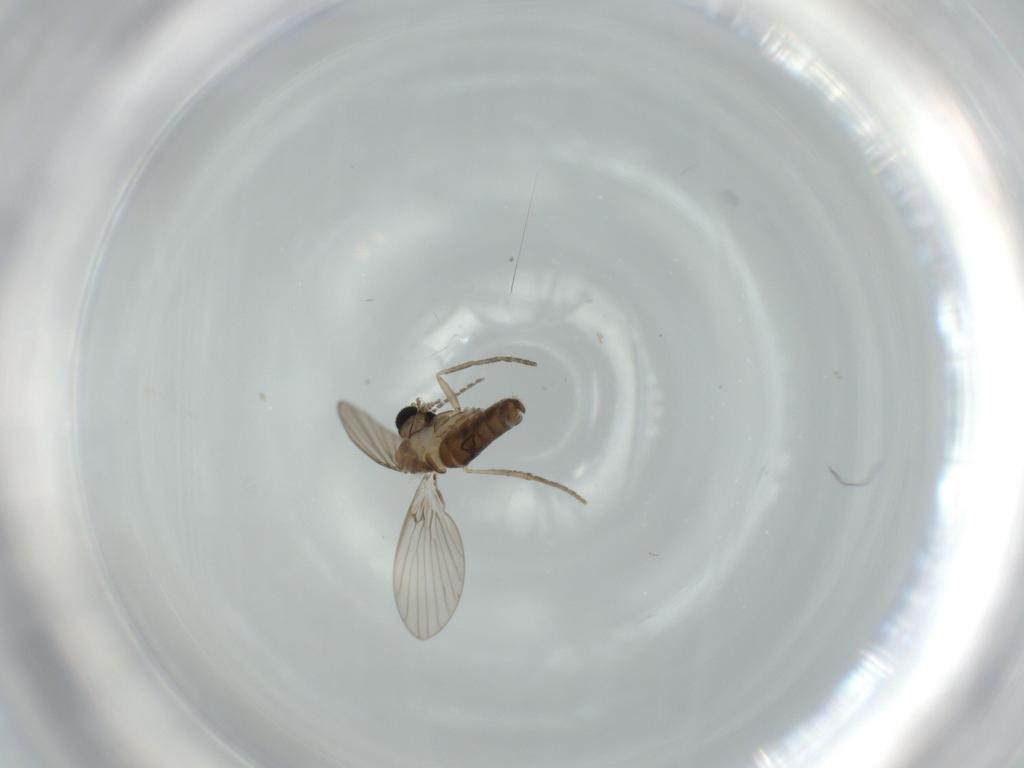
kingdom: Animalia
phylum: Arthropoda
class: Insecta
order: Diptera
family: Psychodidae
